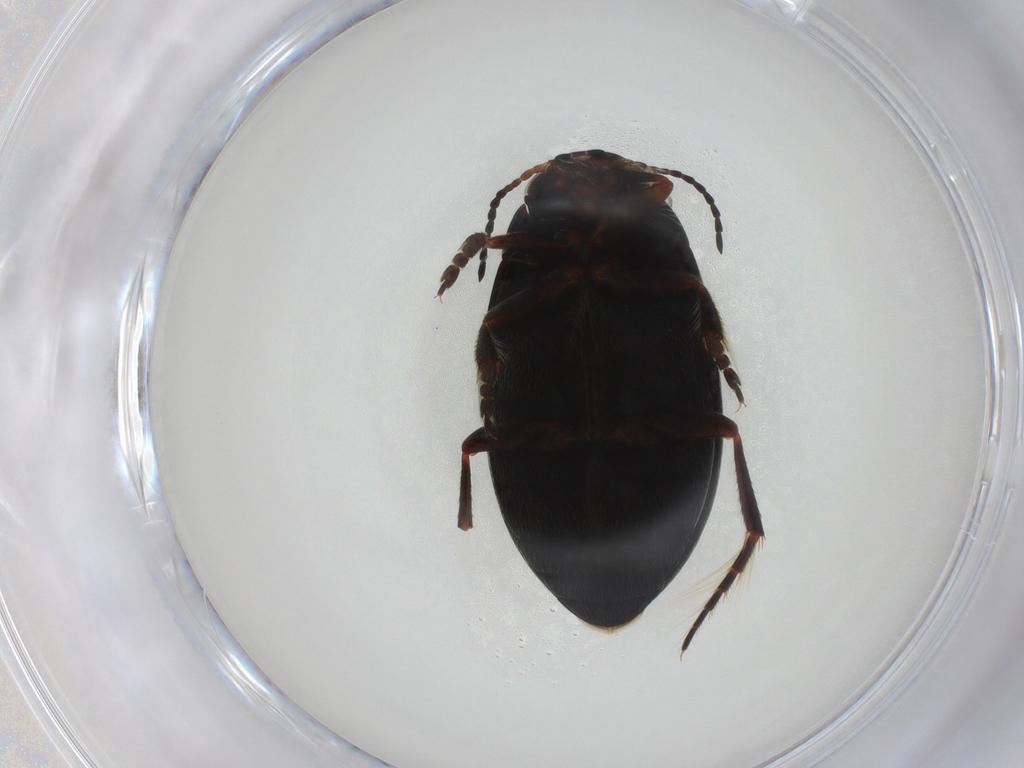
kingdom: Animalia
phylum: Arthropoda
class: Insecta
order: Coleoptera
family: Dytiscidae
